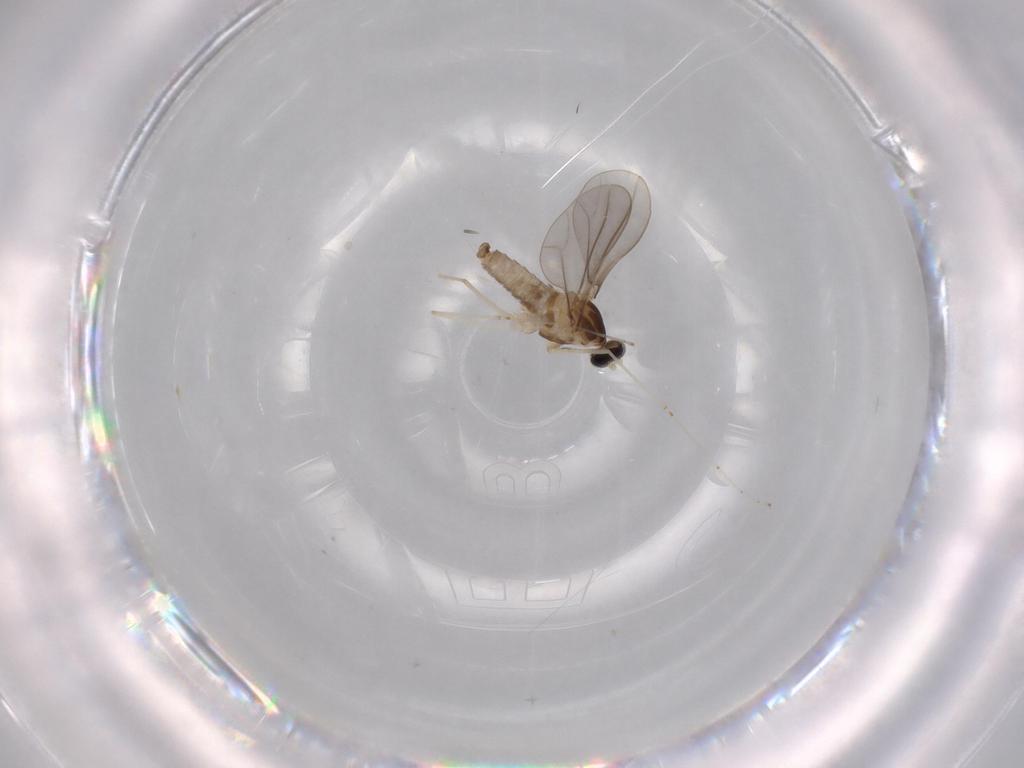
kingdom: Animalia
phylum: Arthropoda
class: Insecta
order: Diptera
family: Cecidomyiidae
